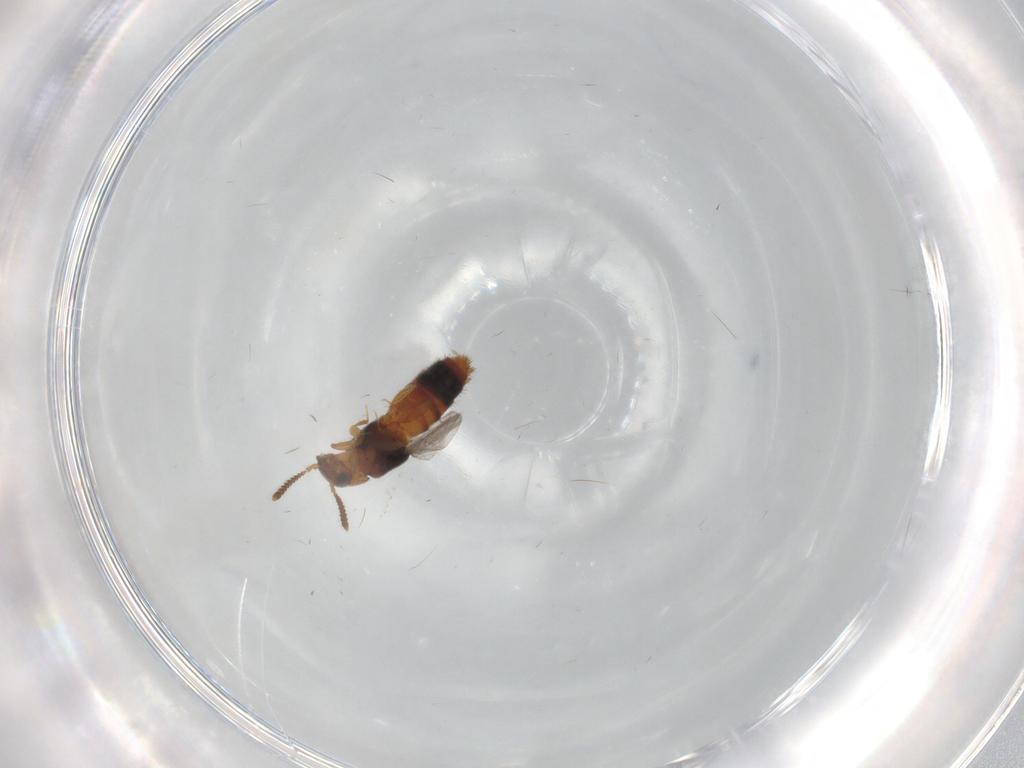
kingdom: Animalia
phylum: Arthropoda
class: Insecta
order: Coleoptera
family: Staphylinidae
